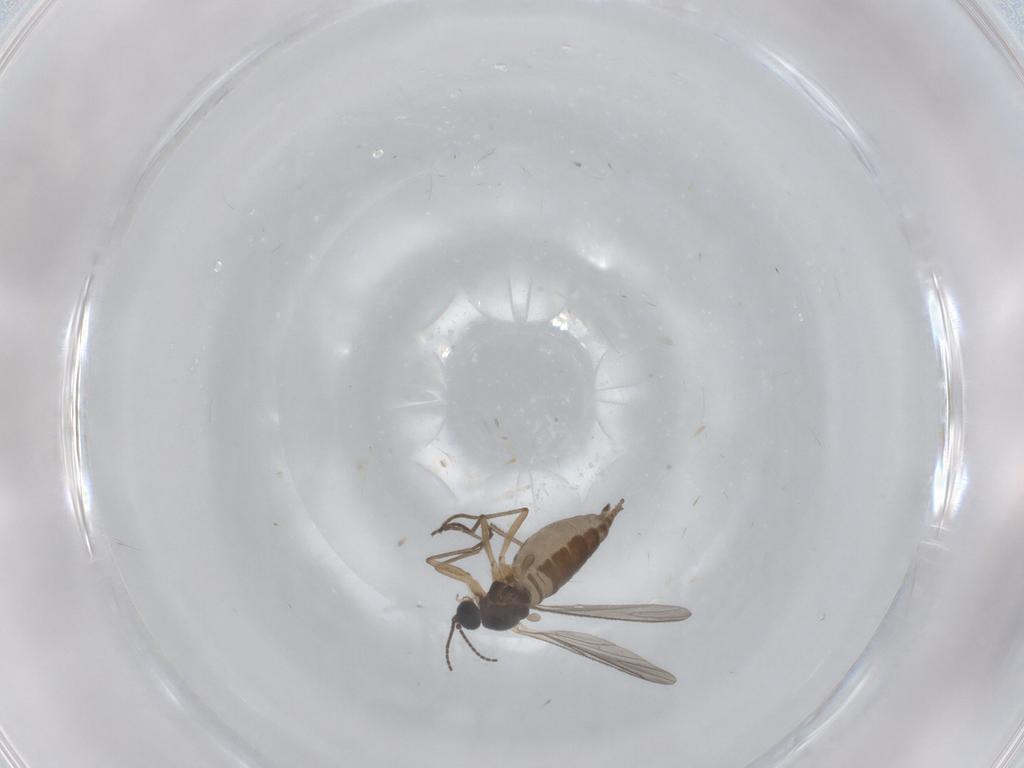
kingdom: Animalia
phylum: Arthropoda
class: Insecta
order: Diptera
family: Sciaridae
